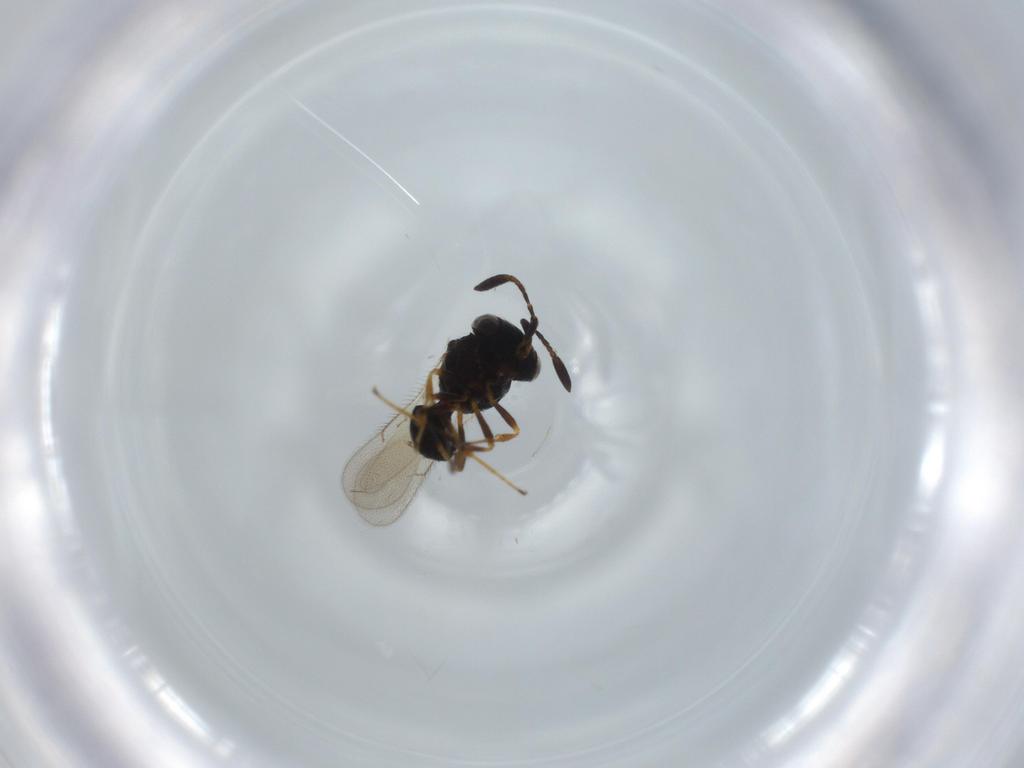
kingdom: Animalia
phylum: Arthropoda
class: Insecta
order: Hymenoptera
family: Scelionidae
